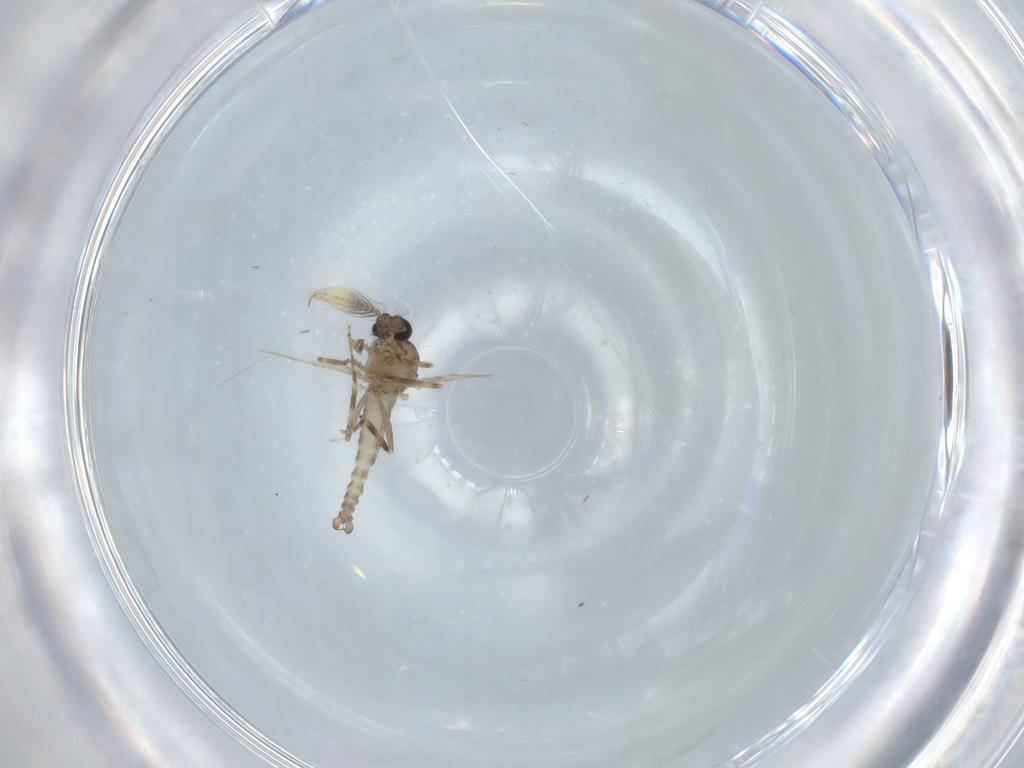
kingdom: Animalia
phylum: Arthropoda
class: Insecta
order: Diptera
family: Ceratopogonidae
